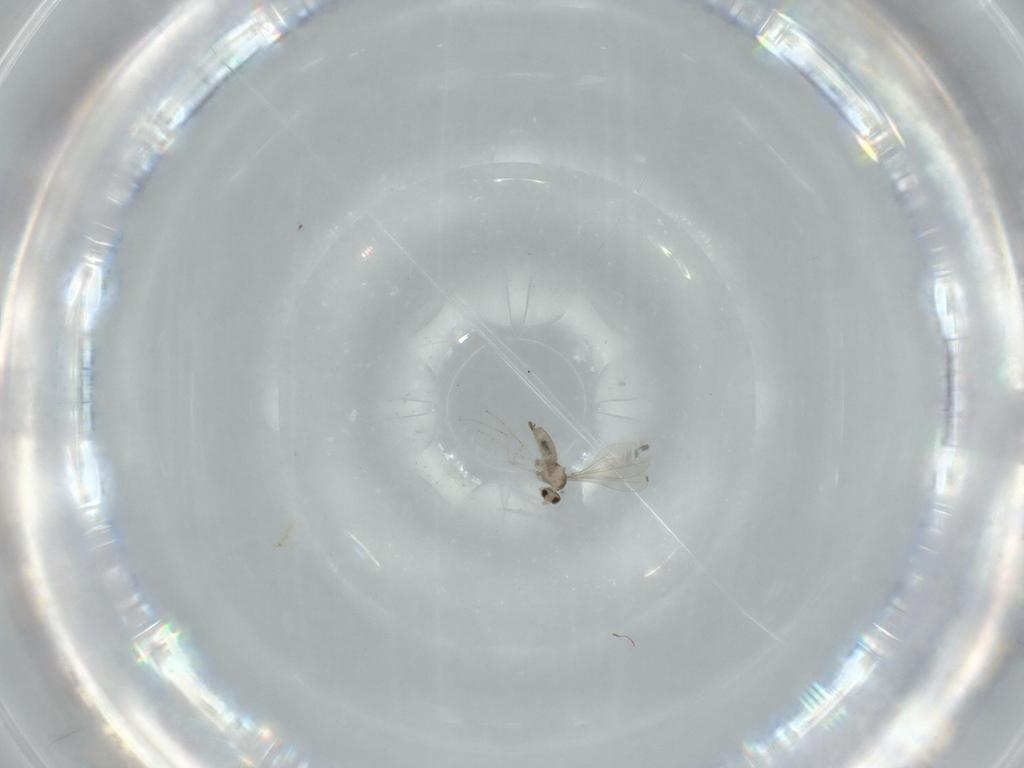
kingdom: Animalia
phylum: Arthropoda
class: Insecta
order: Diptera
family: Cecidomyiidae
